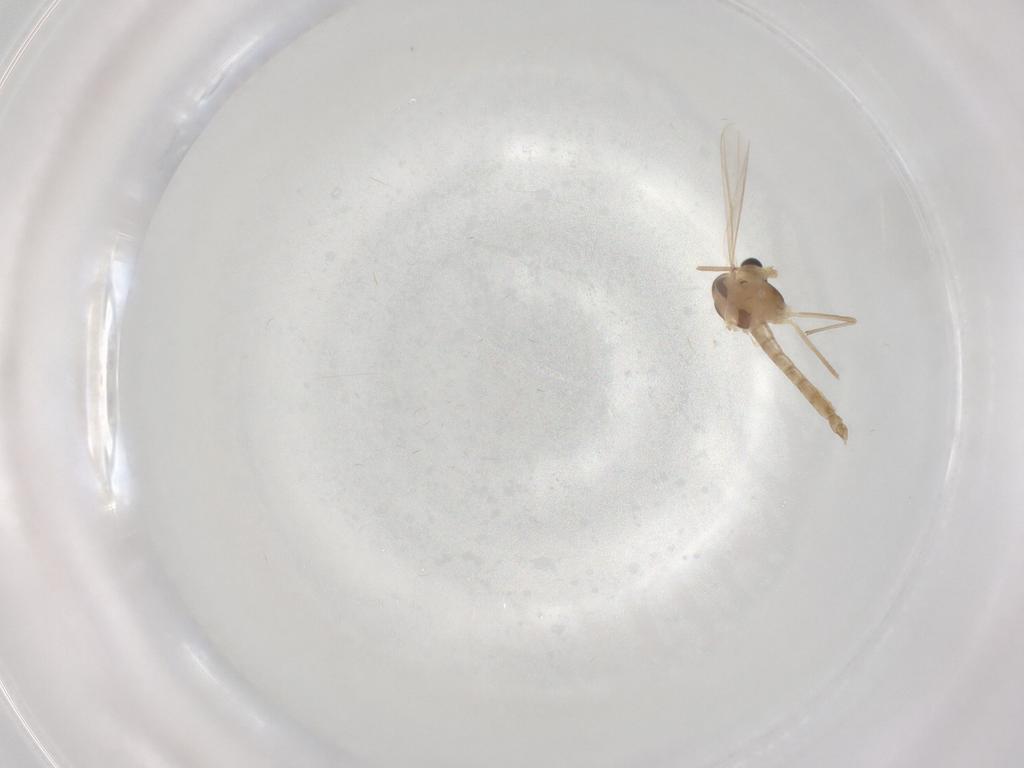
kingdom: Animalia
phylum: Arthropoda
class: Insecta
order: Diptera
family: Chironomidae
